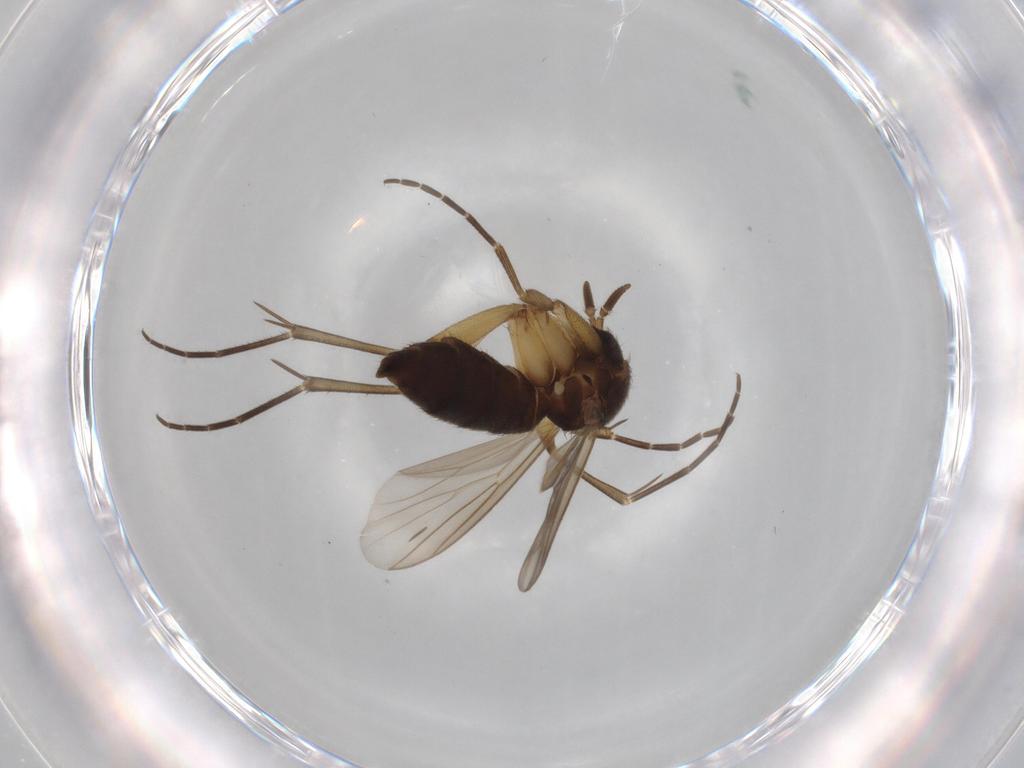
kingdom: Animalia
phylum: Arthropoda
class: Insecta
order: Diptera
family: Mycetophilidae
